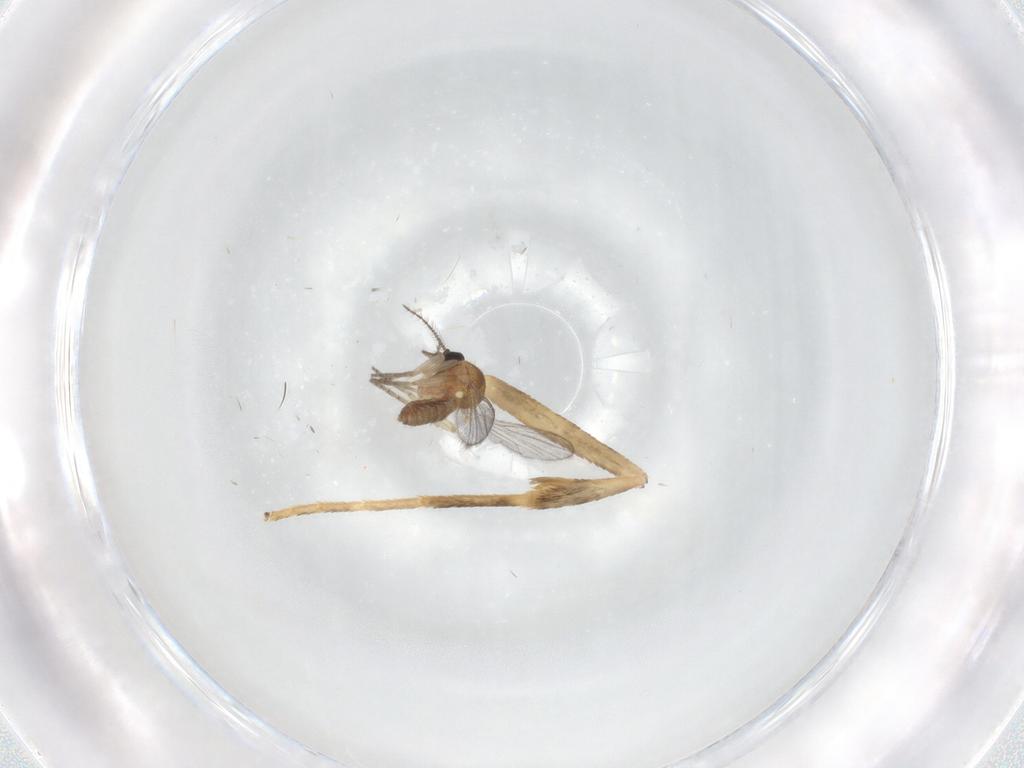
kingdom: Animalia
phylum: Arthropoda
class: Insecta
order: Diptera
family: Ceratopogonidae
